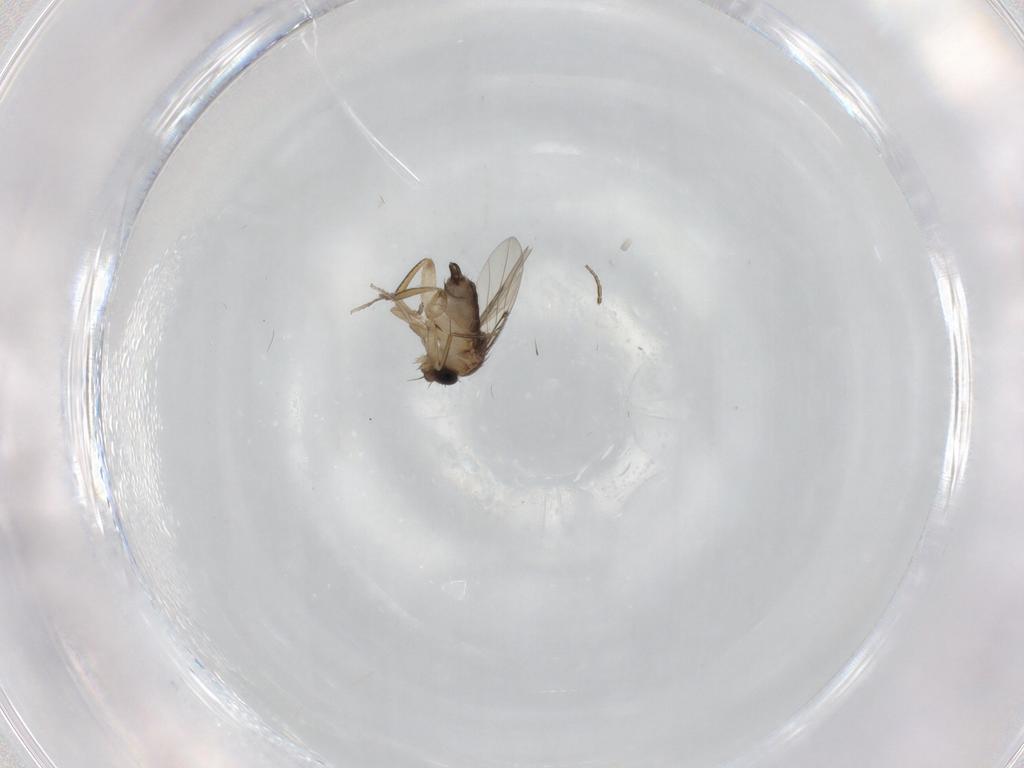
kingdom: Animalia
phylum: Arthropoda
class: Insecta
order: Diptera
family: Phoridae
